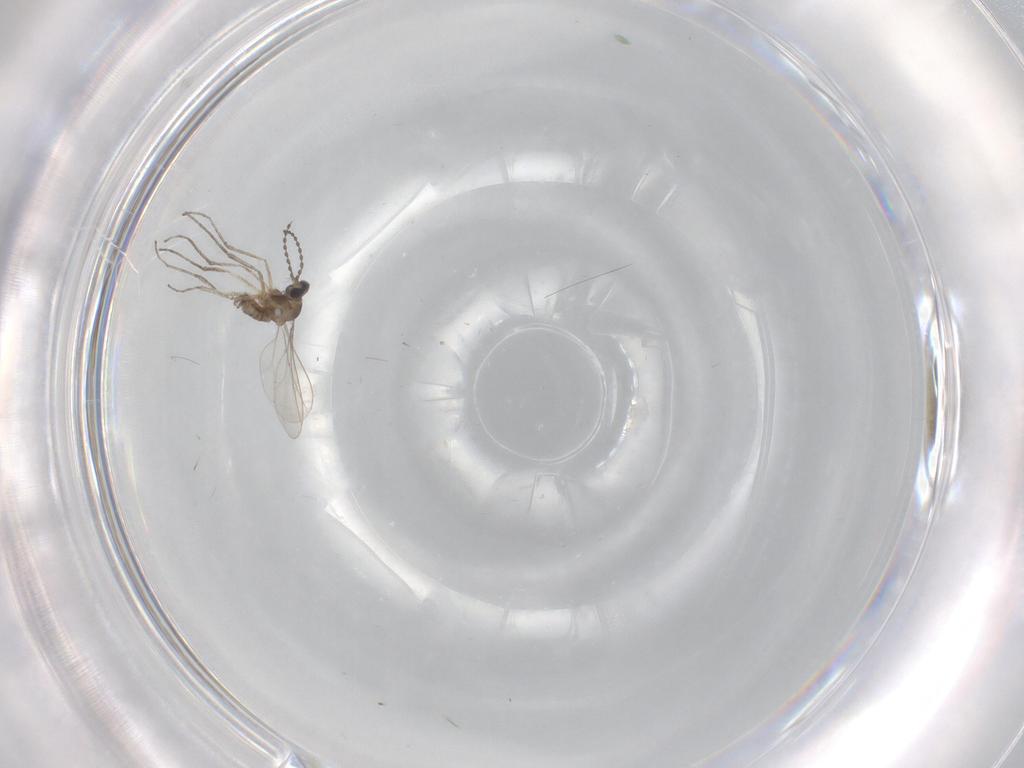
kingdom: Animalia
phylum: Arthropoda
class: Insecta
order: Diptera
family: Cecidomyiidae
